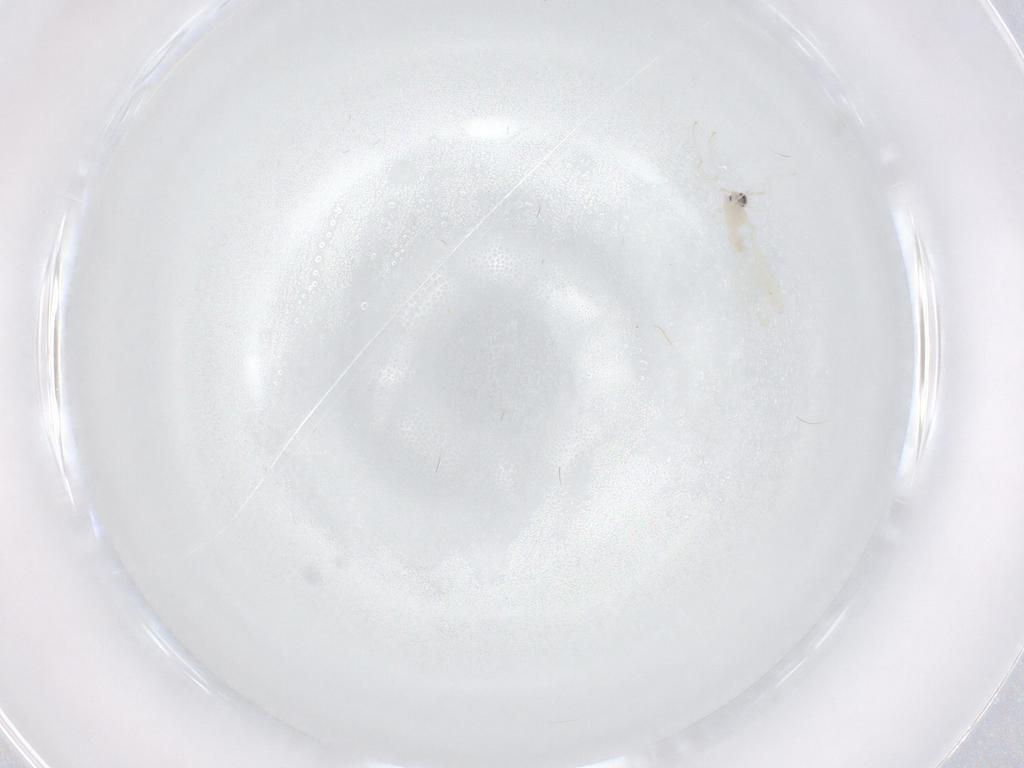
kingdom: Animalia
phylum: Arthropoda
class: Insecta
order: Diptera
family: Cecidomyiidae
